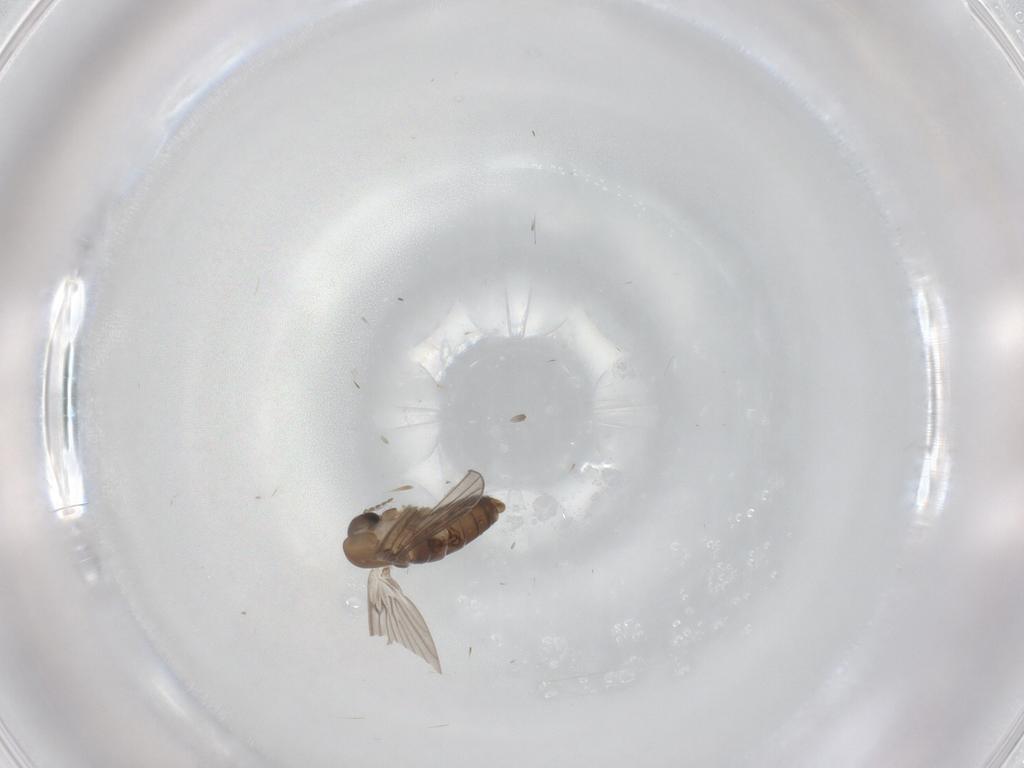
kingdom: Animalia
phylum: Arthropoda
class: Insecta
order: Diptera
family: Psychodidae
